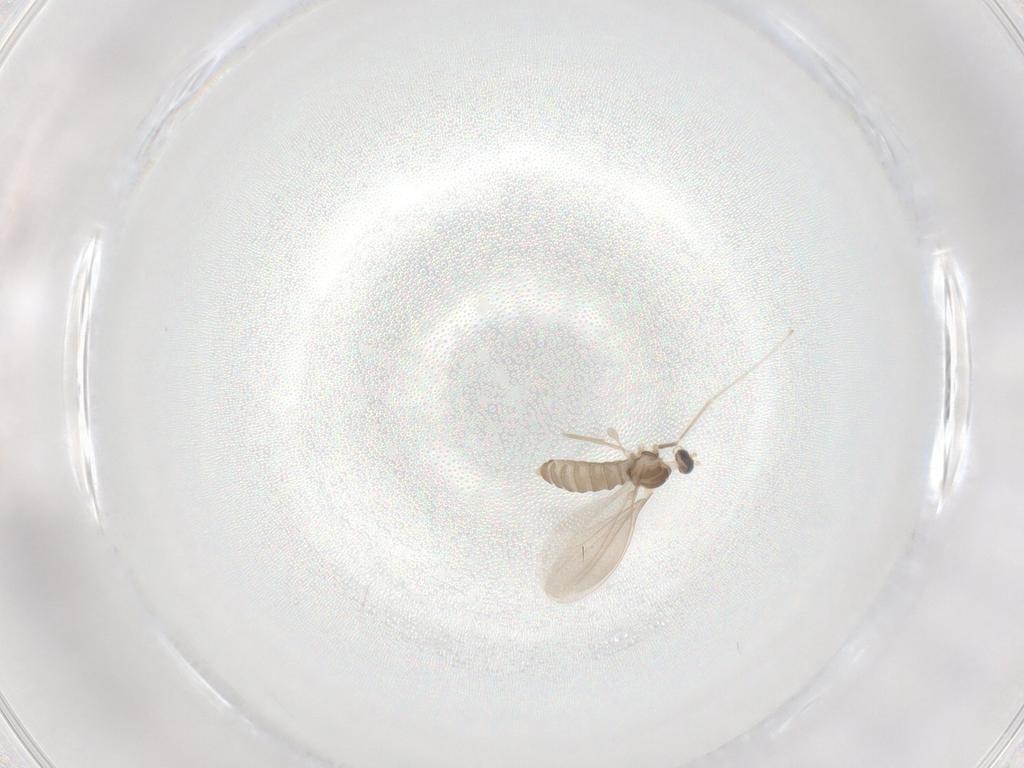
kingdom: Animalia
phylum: Arthropoda
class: Insecta
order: Diptera
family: Cecidomyiidae
